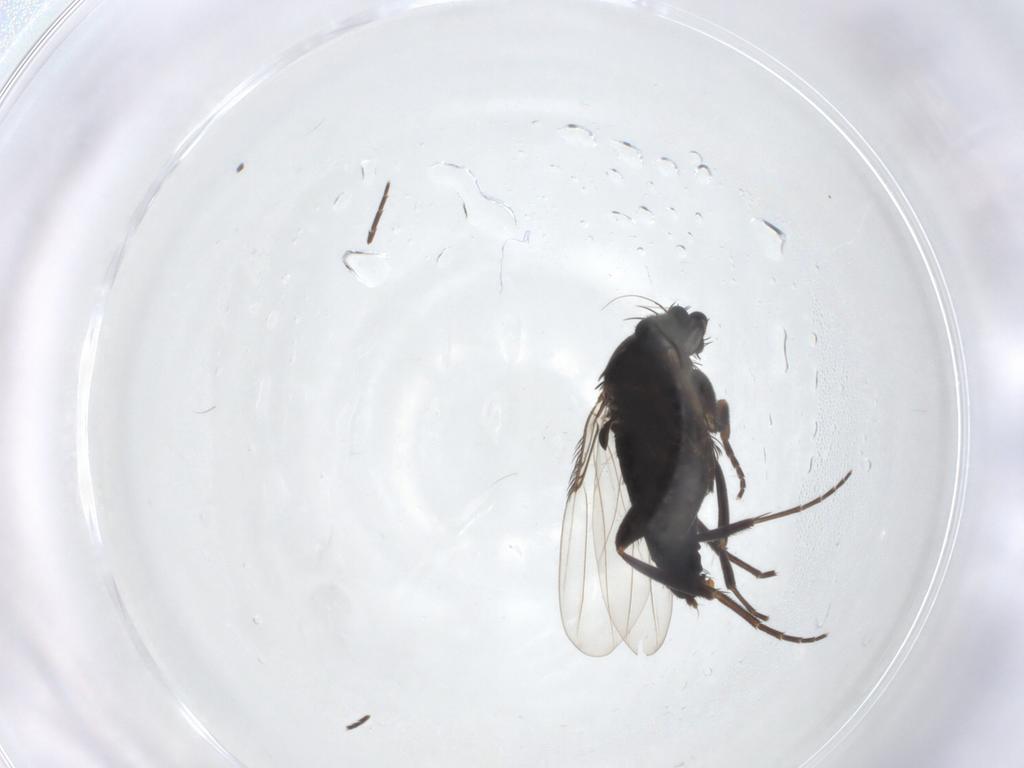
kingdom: Animalia
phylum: Arthropoda
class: Insecta
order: Diptera
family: Phoridae
